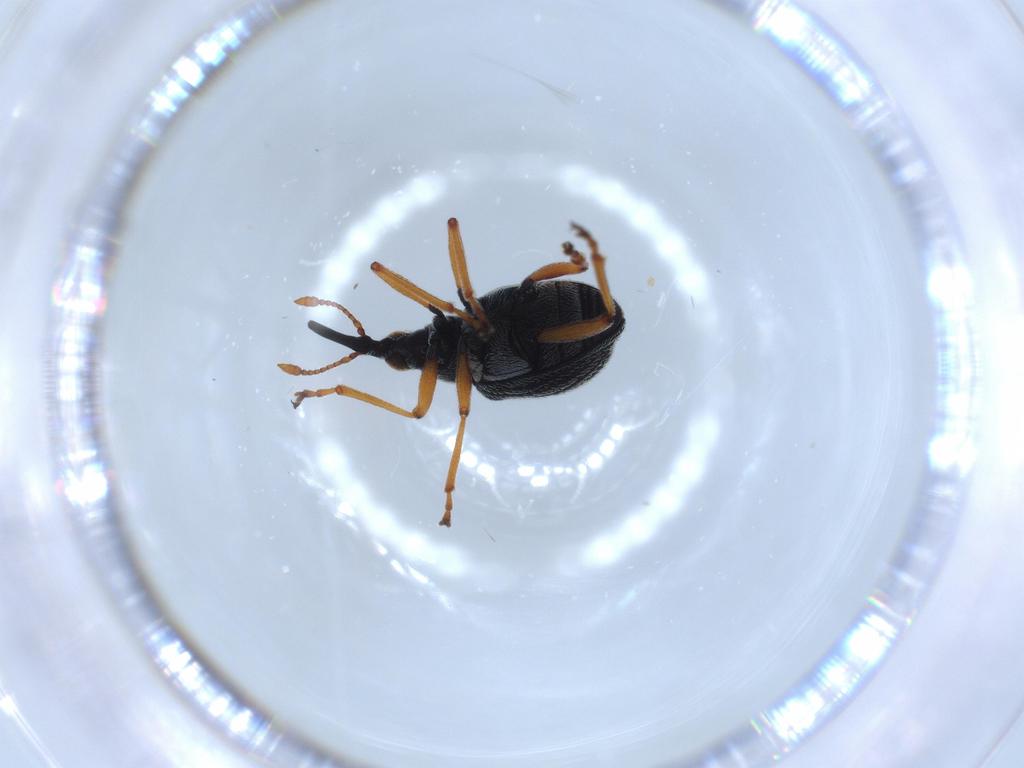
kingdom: Animalia
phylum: Arthropoda
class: Insecta
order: Coleoptera
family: Brentidae
